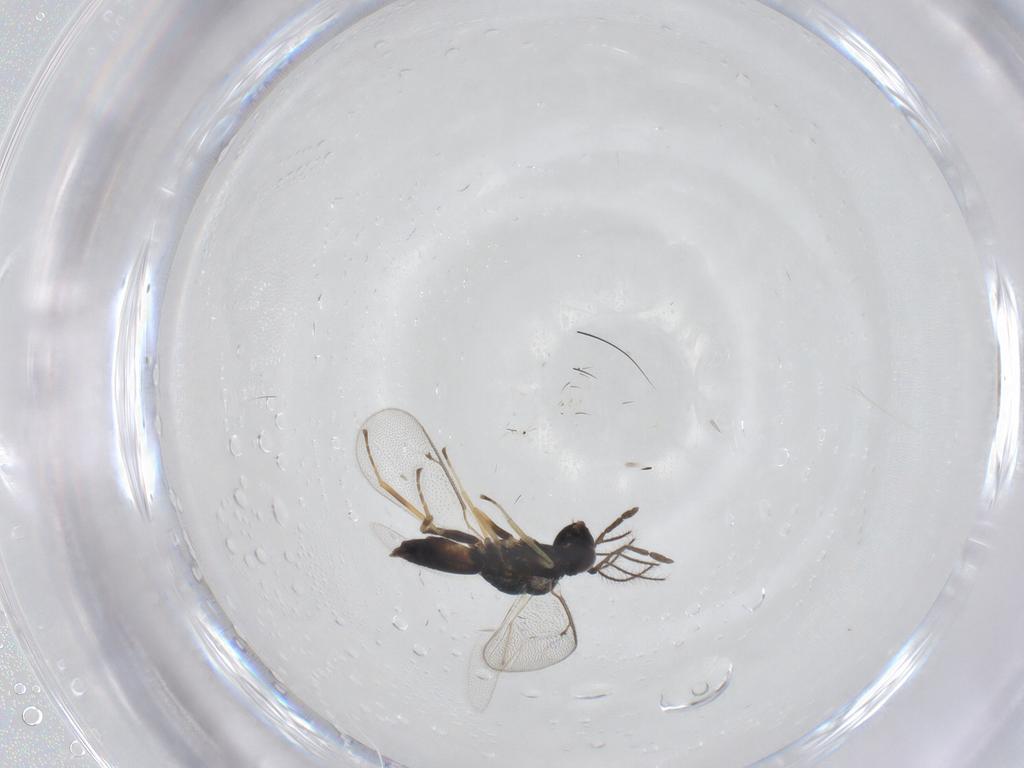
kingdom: Animalia
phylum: Arthropoda
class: Insecta
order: Hymenoptera
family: Eulophidae
